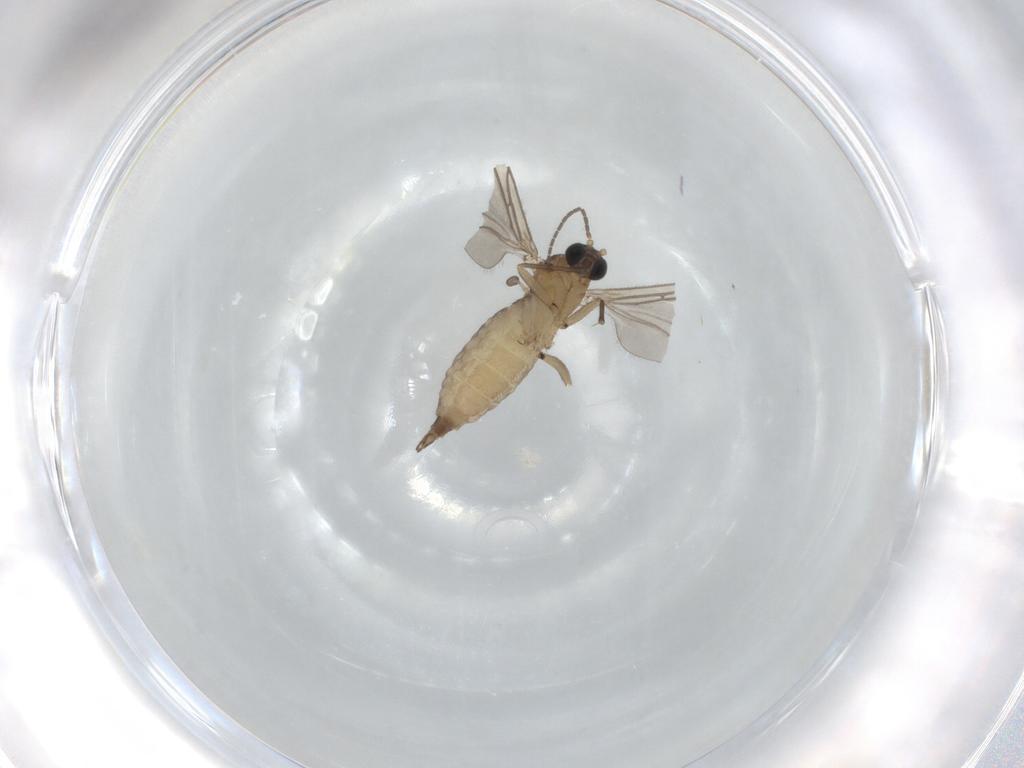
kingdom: Animalia
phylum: Arthropoda
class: Insecta
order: Diptera
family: Sciaridae
